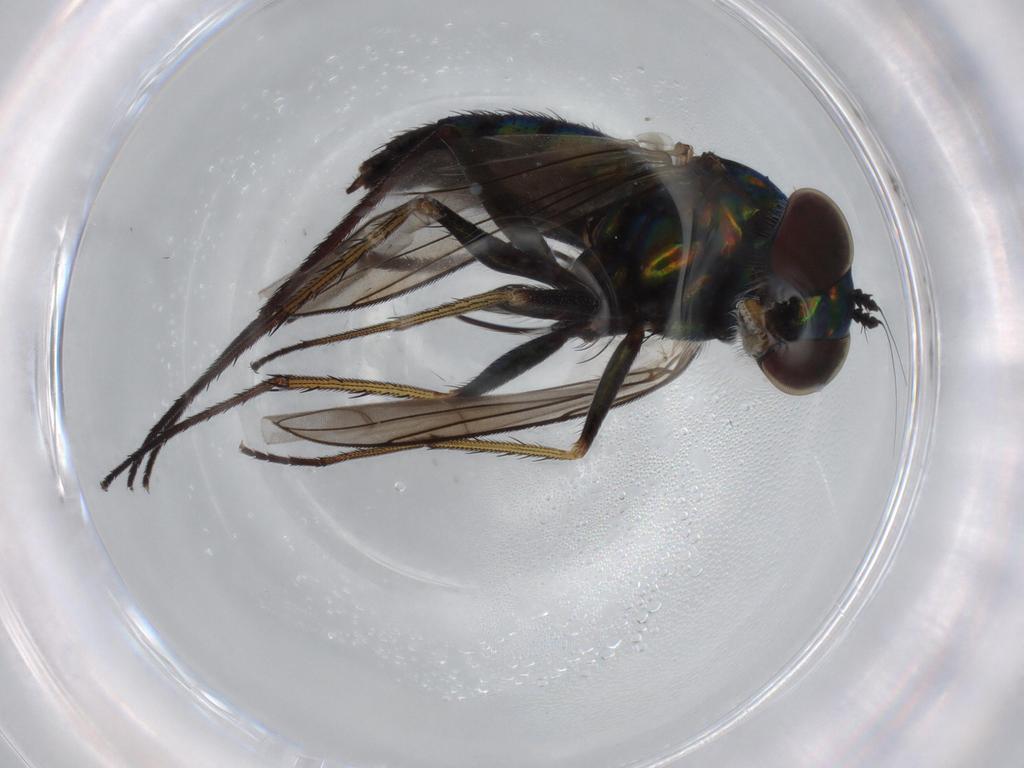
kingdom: Animalia
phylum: Arthropoda
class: Insecta
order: Diptera
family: Dolichopodidae
